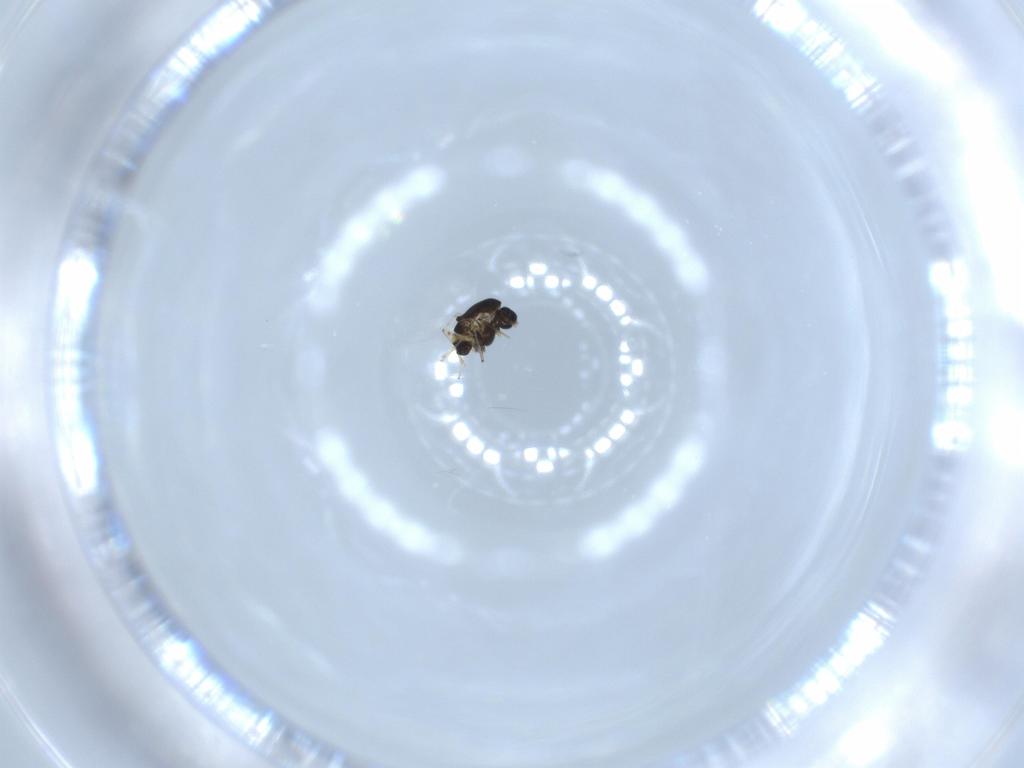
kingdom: Animalia
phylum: Arthropoda
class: Insecta
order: Diptera
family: Chironomidae
